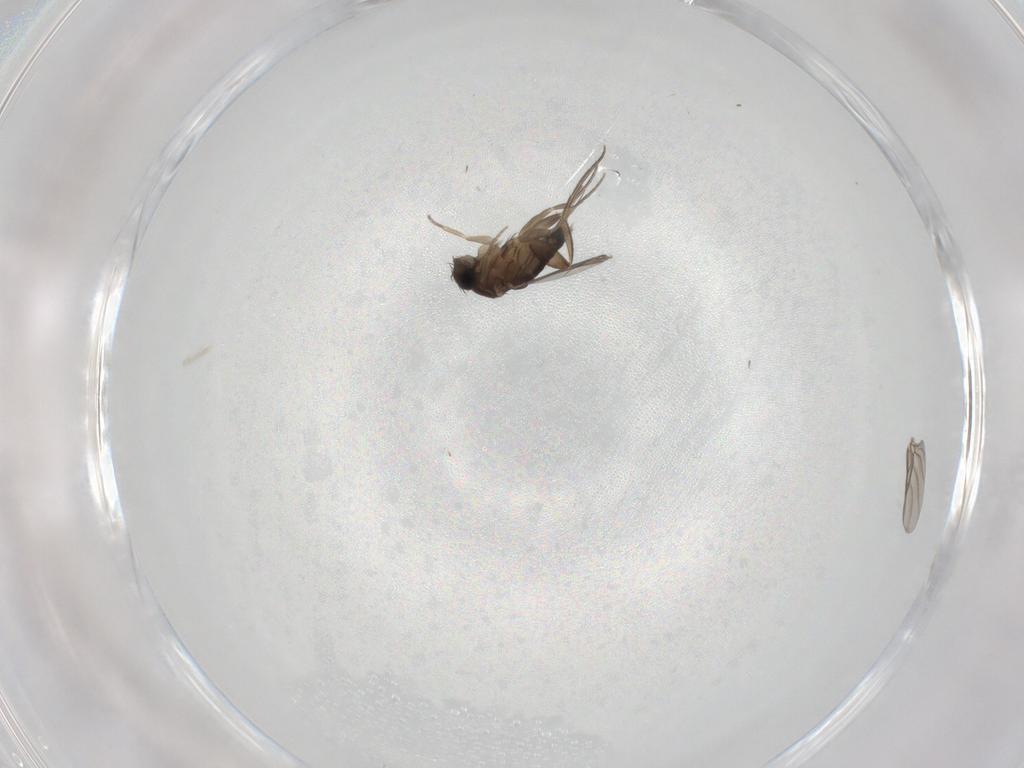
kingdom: Animalia
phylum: Arthropoda
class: Insecta
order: Diptera
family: Phoridae
